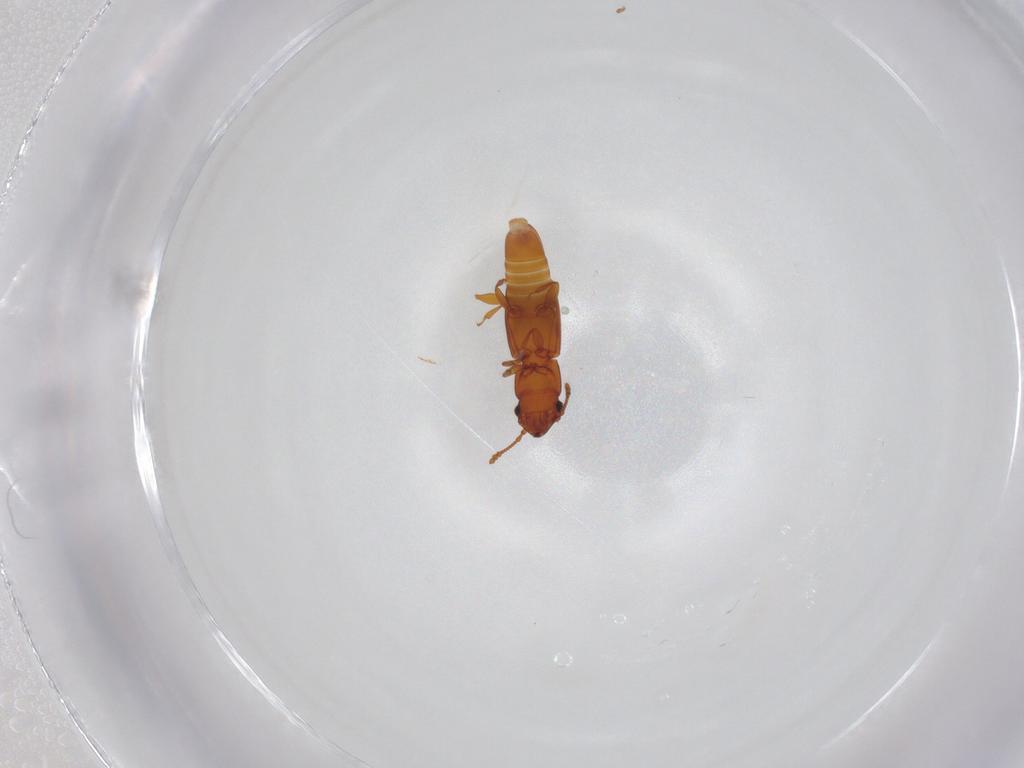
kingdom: Animalia
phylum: Arthropoda
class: Insecta
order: Coleoptera
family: Smicripidae
